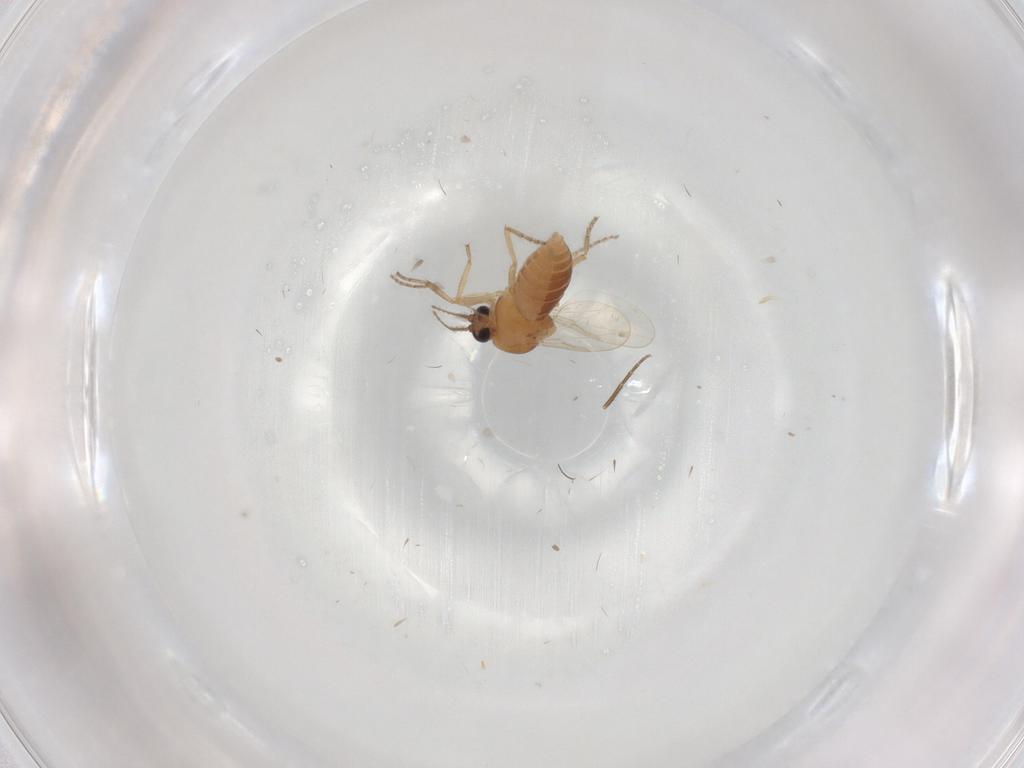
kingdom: Animalia
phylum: Arthropoda
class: Insecta
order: Diptera
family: Ceratopogonidae
